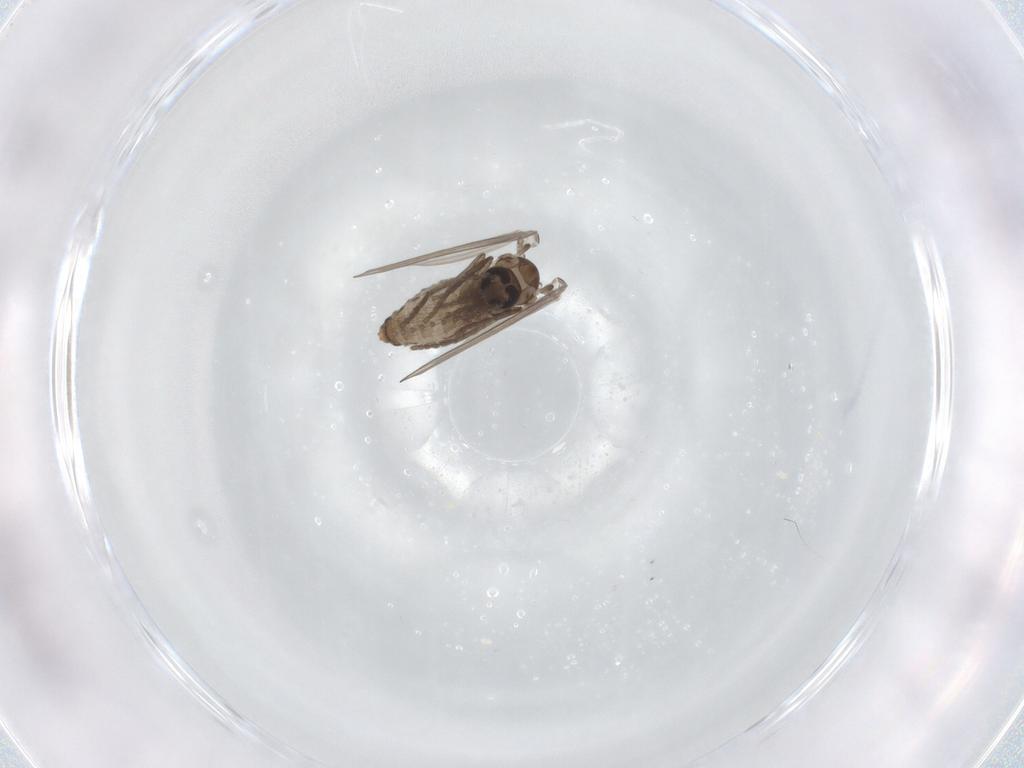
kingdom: Animalia
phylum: Arthropoda
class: Insecta
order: Diptera
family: Psychodidae
